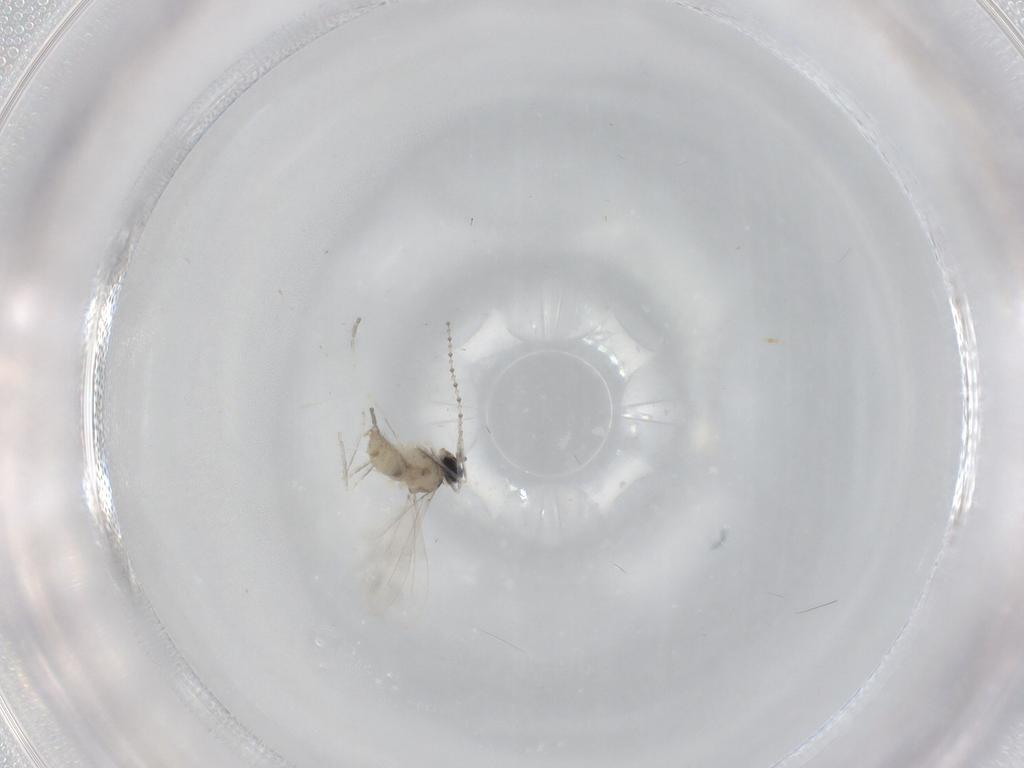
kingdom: Animalia
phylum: Arthropoda
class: Insecta
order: Diptera
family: Cecidomyiidae
